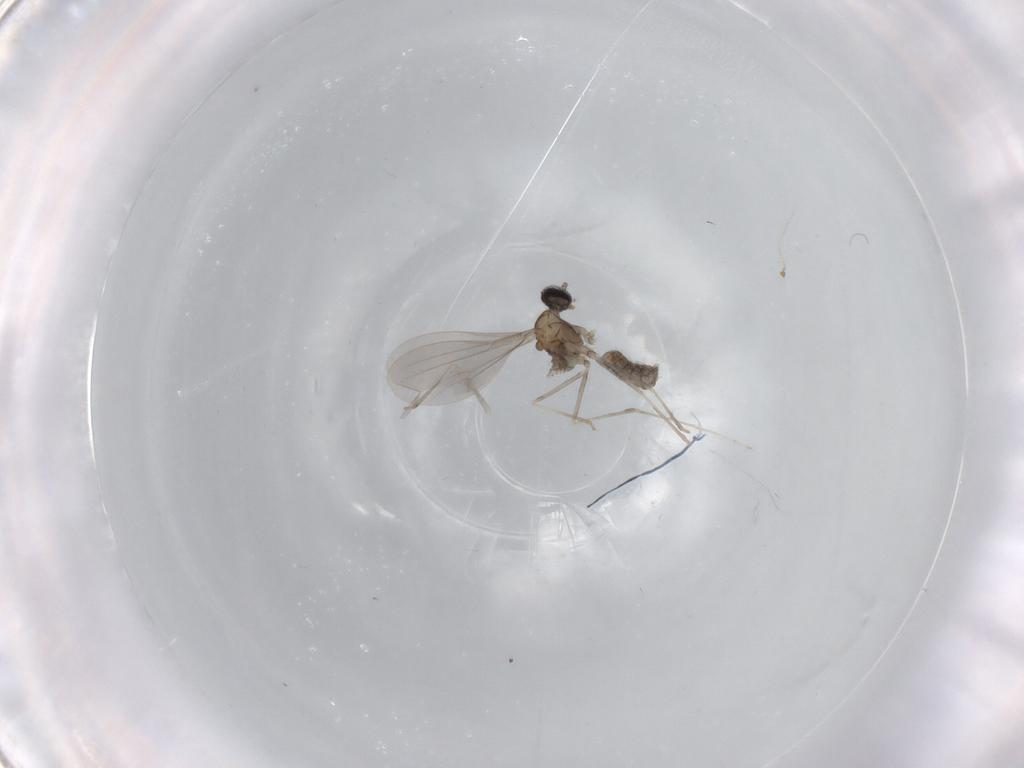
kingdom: Animalia
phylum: Arthropoda
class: Insecta
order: Diptera
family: Cecidomyiidae
